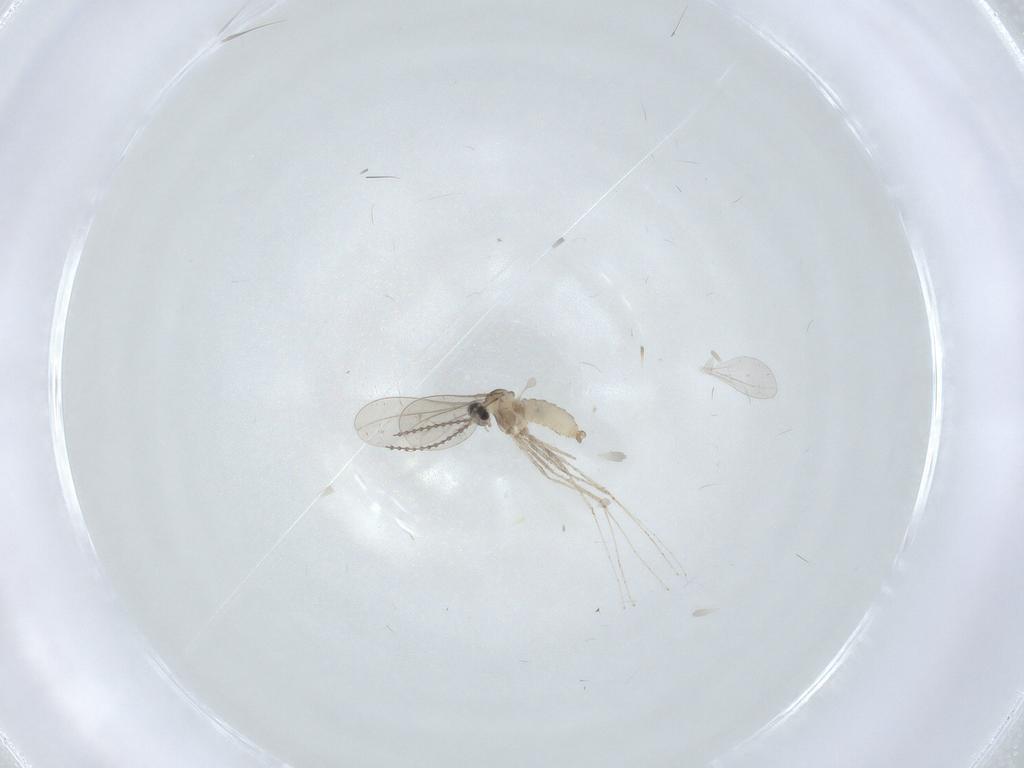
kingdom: Animalia
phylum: Arthropoda
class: Insecta
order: Diptera
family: Cecidomyiidae
